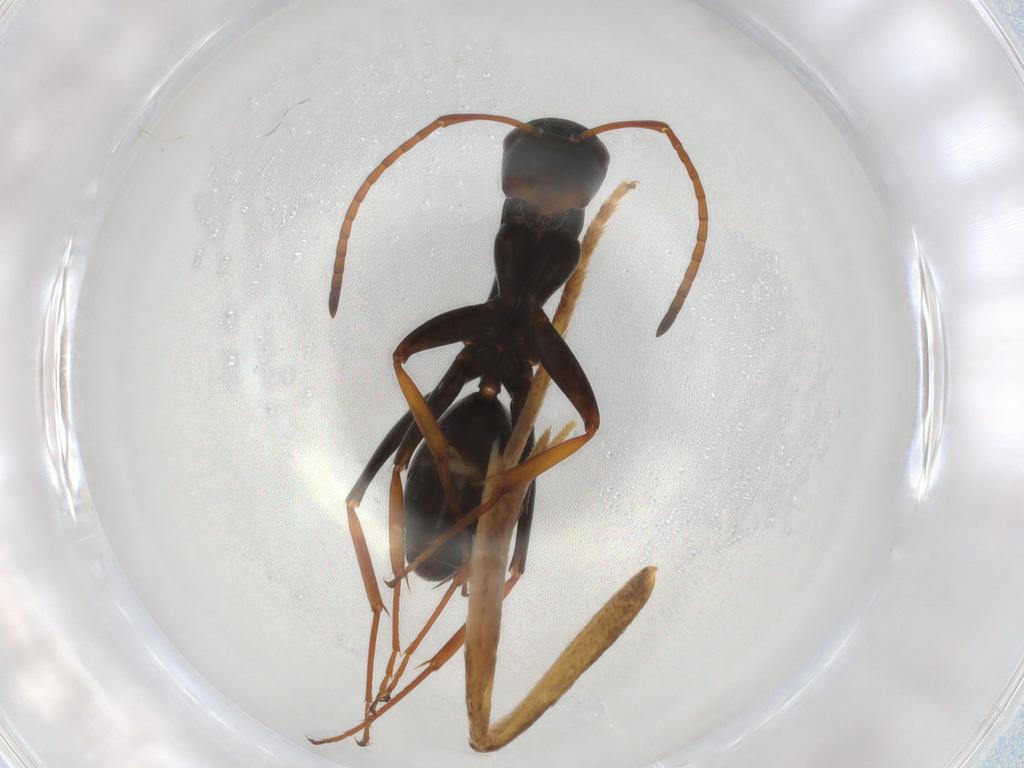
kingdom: Animalia
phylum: Arthropoda
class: Insecta
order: Hymenoptera
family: Formicidae
